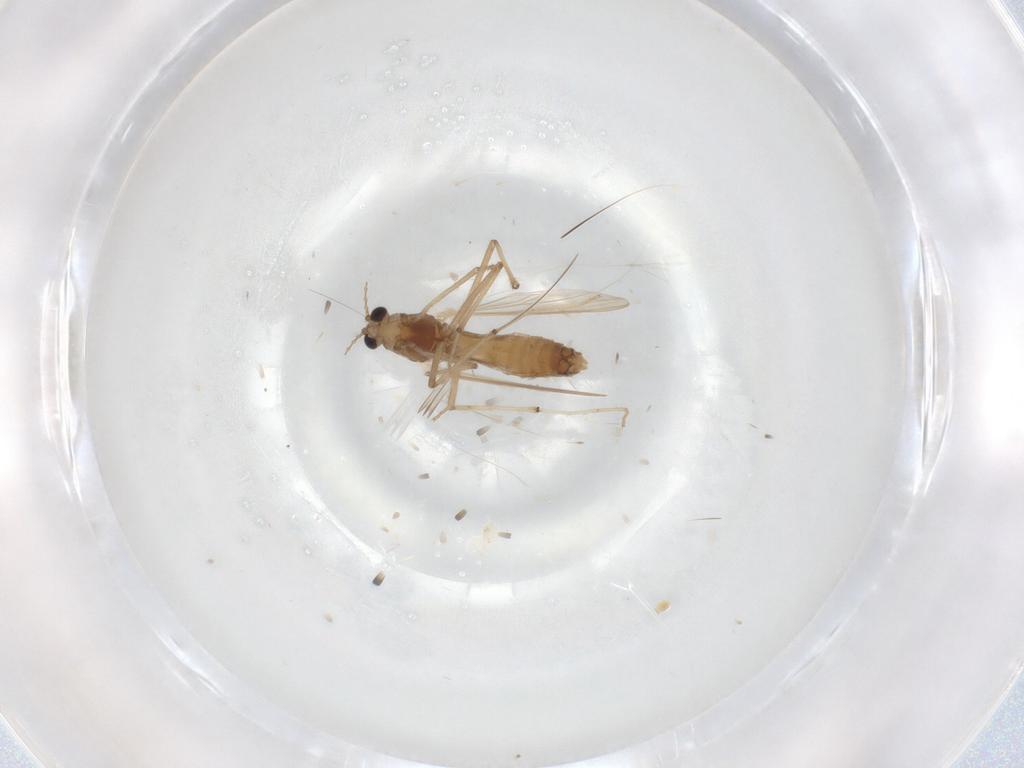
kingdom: Animalia
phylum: Arthropoda
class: Insecta
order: Diptera
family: Chironomidae
